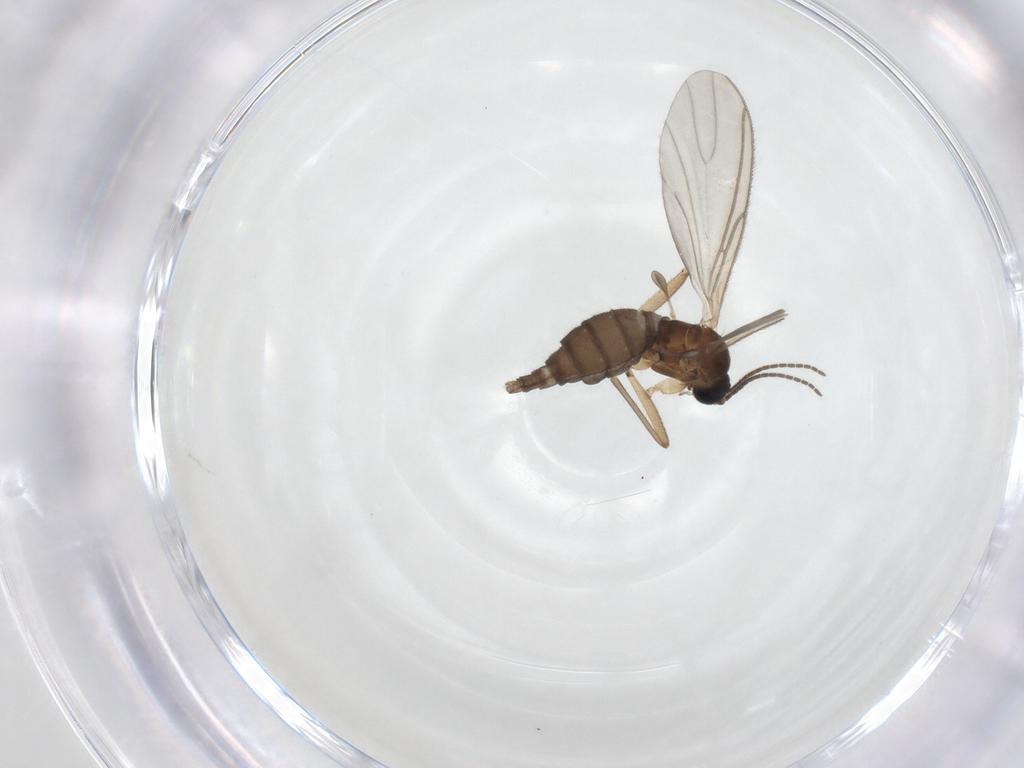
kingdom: Animalia
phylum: Arthropoda
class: Insecta
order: Diptera
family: Sciaridae
